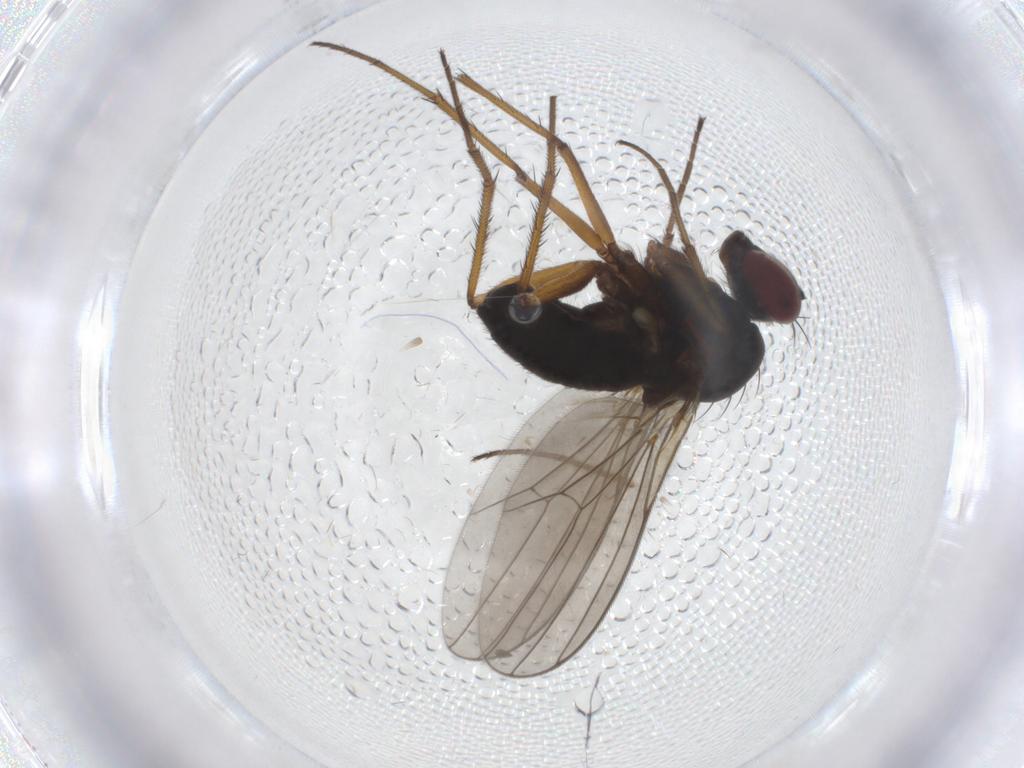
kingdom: Animalia
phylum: Arthropoda
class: Insecta
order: Diptera
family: Dolichopodidae
